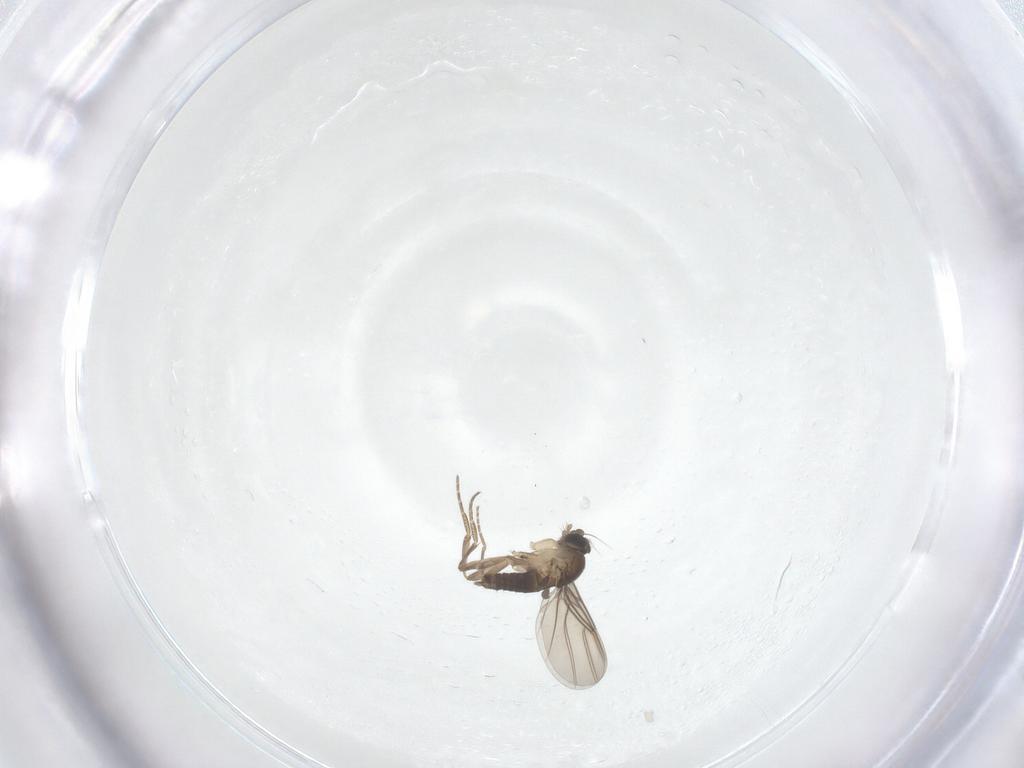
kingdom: Animalia
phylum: Arthropoda
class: Insecta
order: Diptera
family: Phoridae
